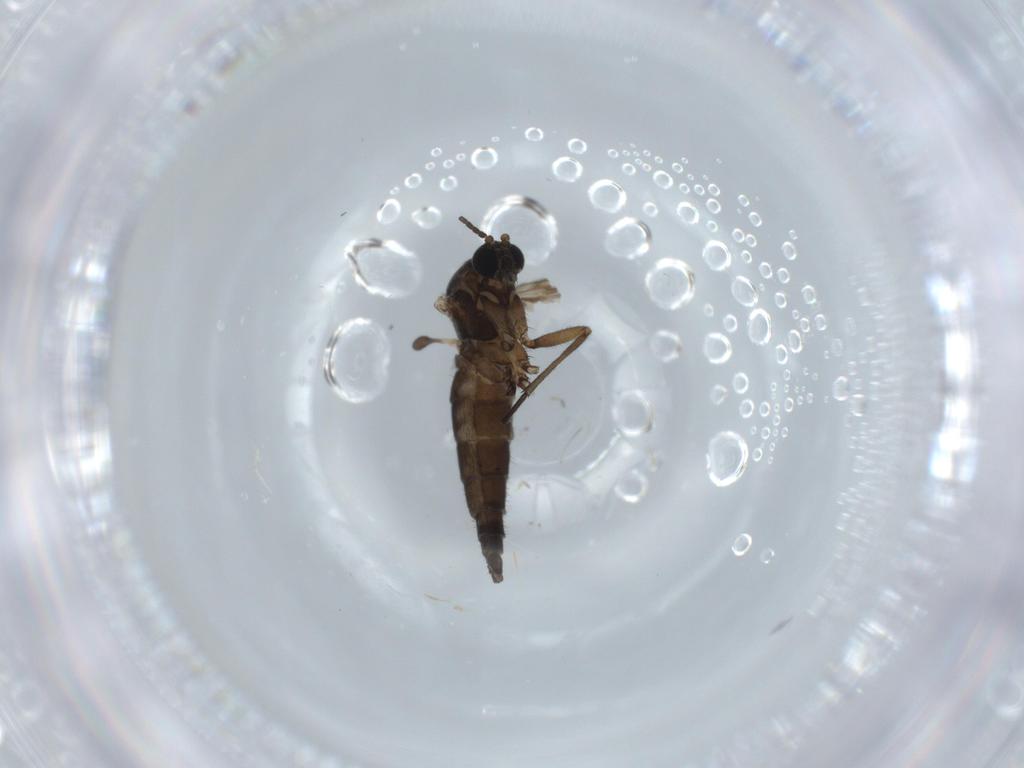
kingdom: Animalia
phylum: Arthropoda
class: Insecta
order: Diptera
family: Sciaridae
